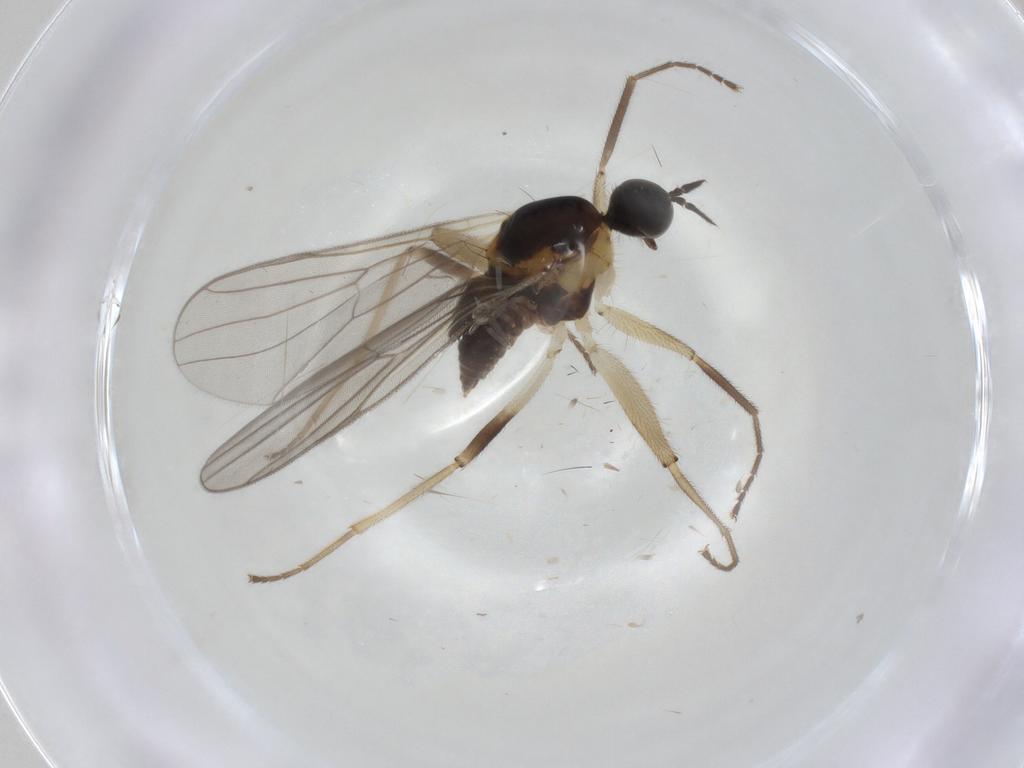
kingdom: Animalia
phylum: Arthropoda
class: Insecta
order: Diptera
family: Hybotidae
